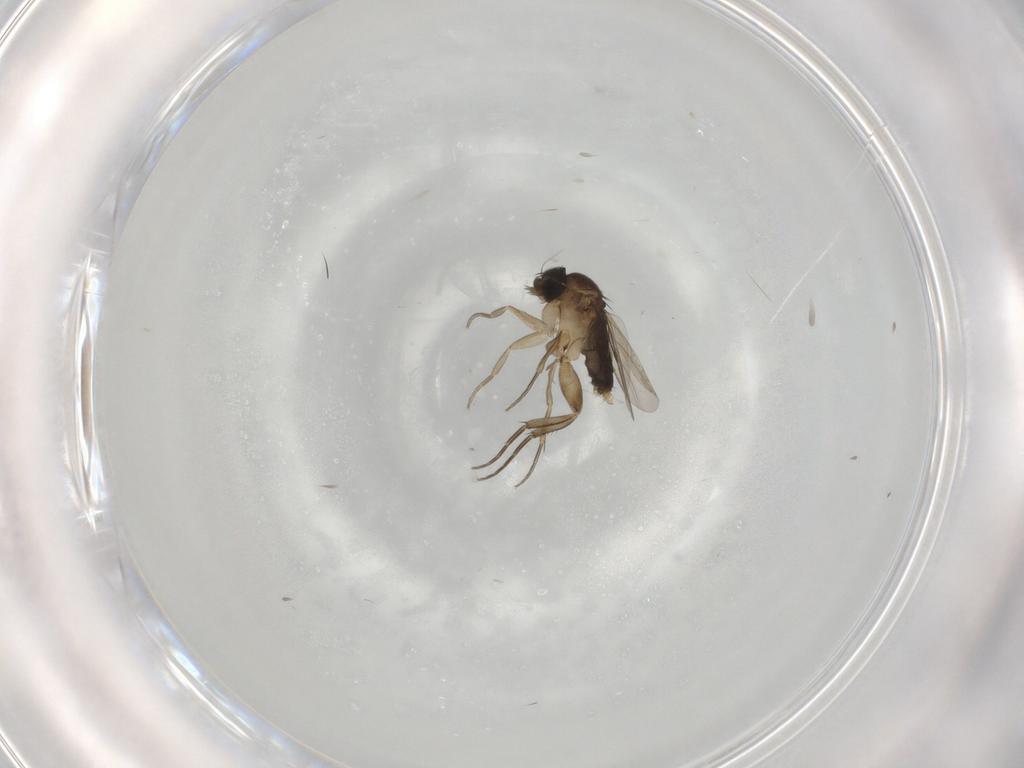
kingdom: Animalia
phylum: Arthropoda
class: Insecta
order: Diptera
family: Phoridae
